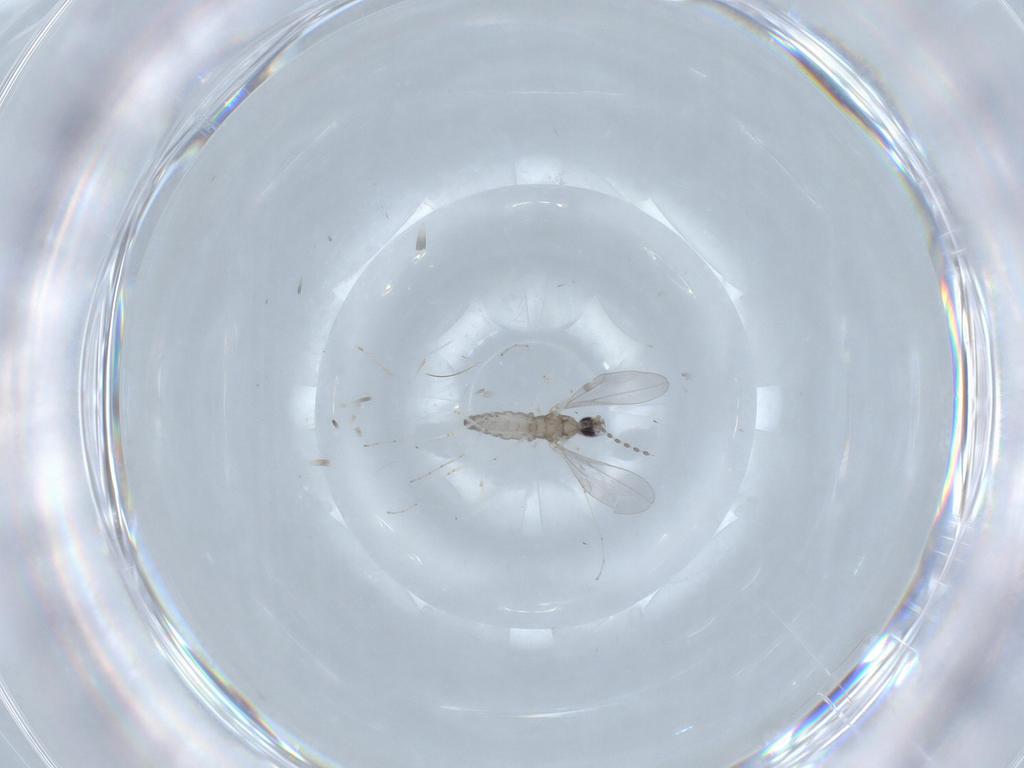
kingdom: Animalia
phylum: Arthropoda
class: Insecta
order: Diptera
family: Cecidomyiidae
